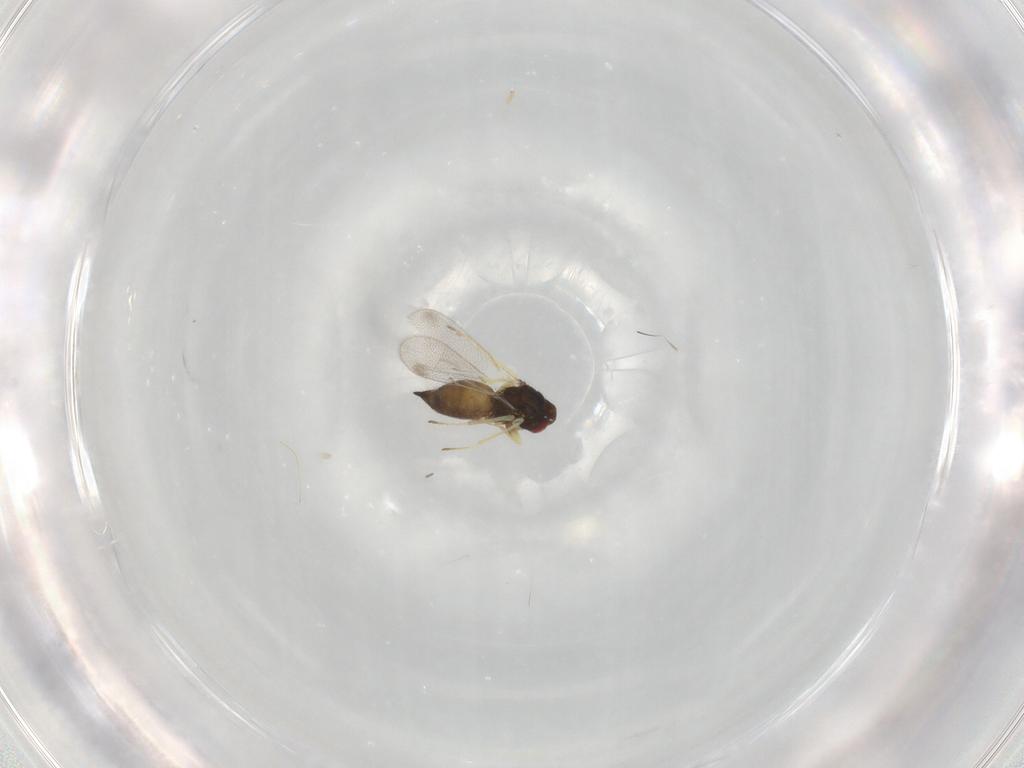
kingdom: Animalia
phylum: Arthropoda
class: Insecta
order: Hymenoptera
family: Eulophidae
